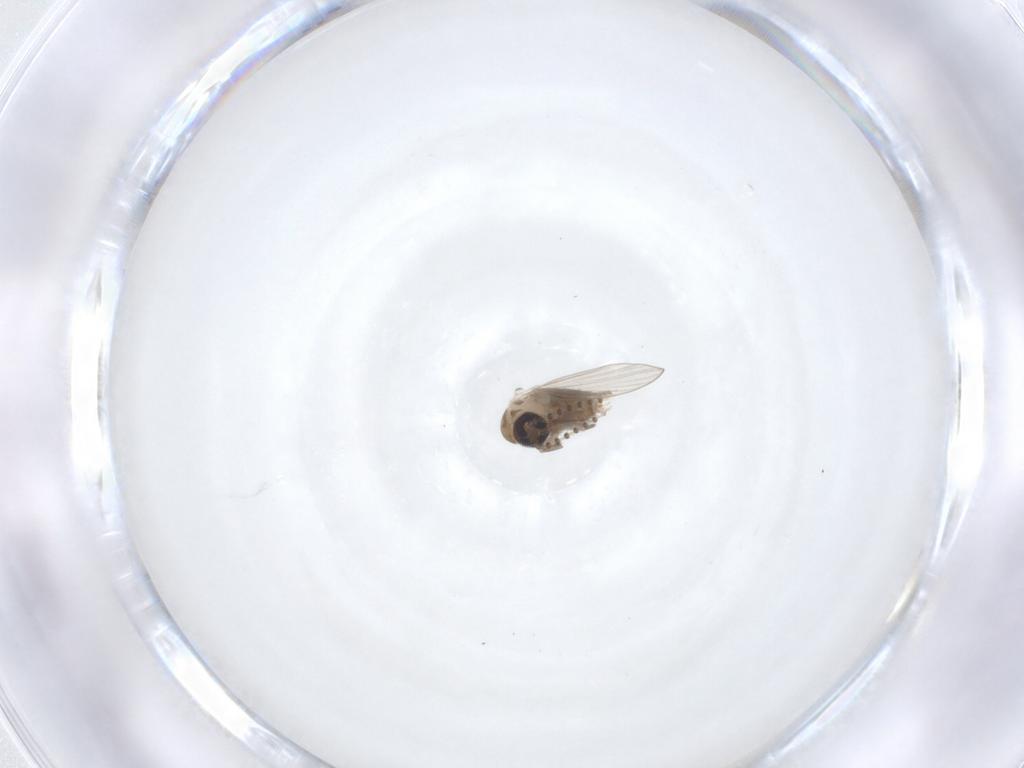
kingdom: Animalia
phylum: Arthropoda
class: Insecta
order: Diptera
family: Psychodidae
